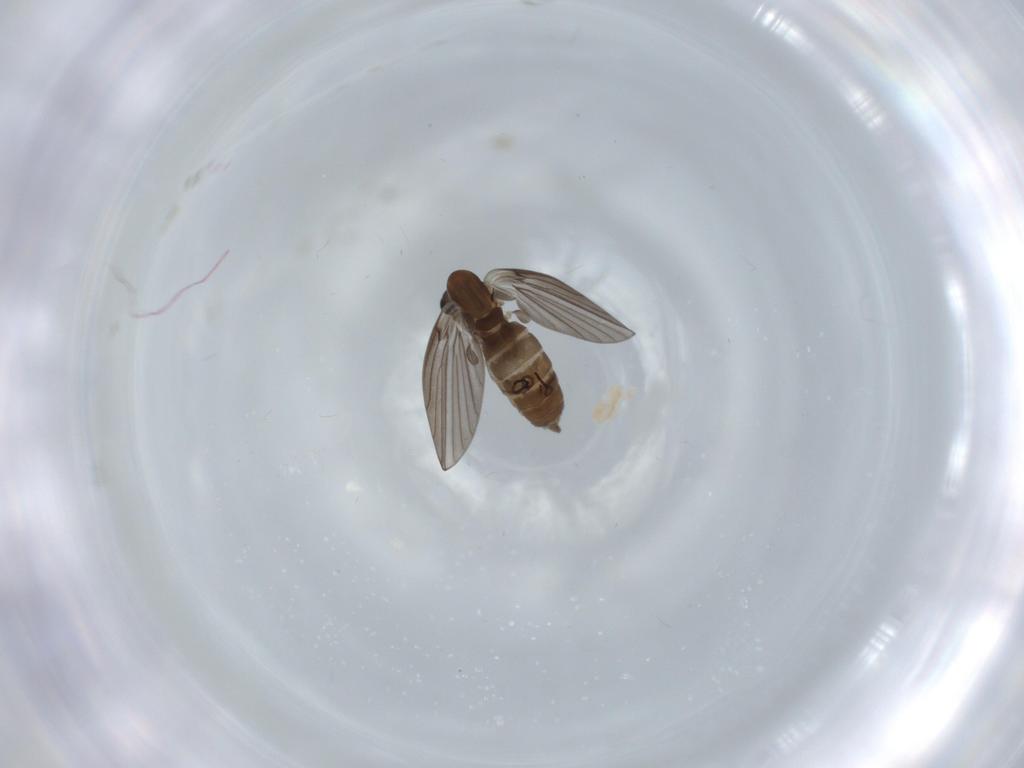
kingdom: Animalia
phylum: Arthropoda
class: Insecta
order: Diptera
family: Psychodidae
